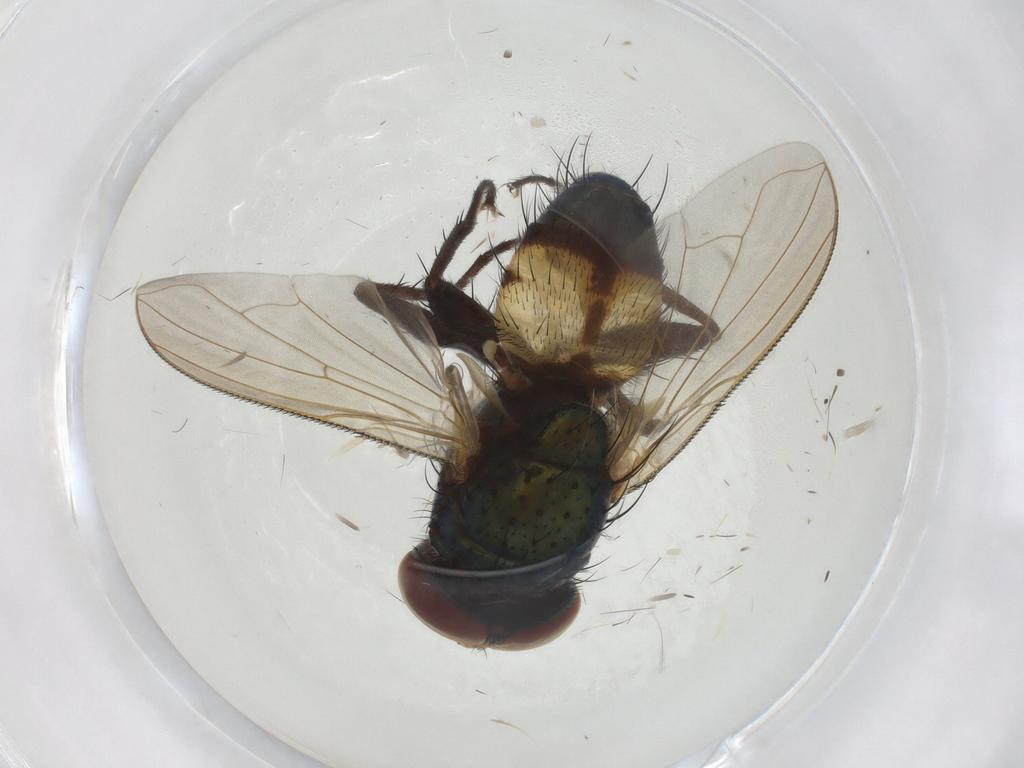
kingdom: Animalia
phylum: Arthropoda
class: Insecta
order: Diptera
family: Calliphoridae
